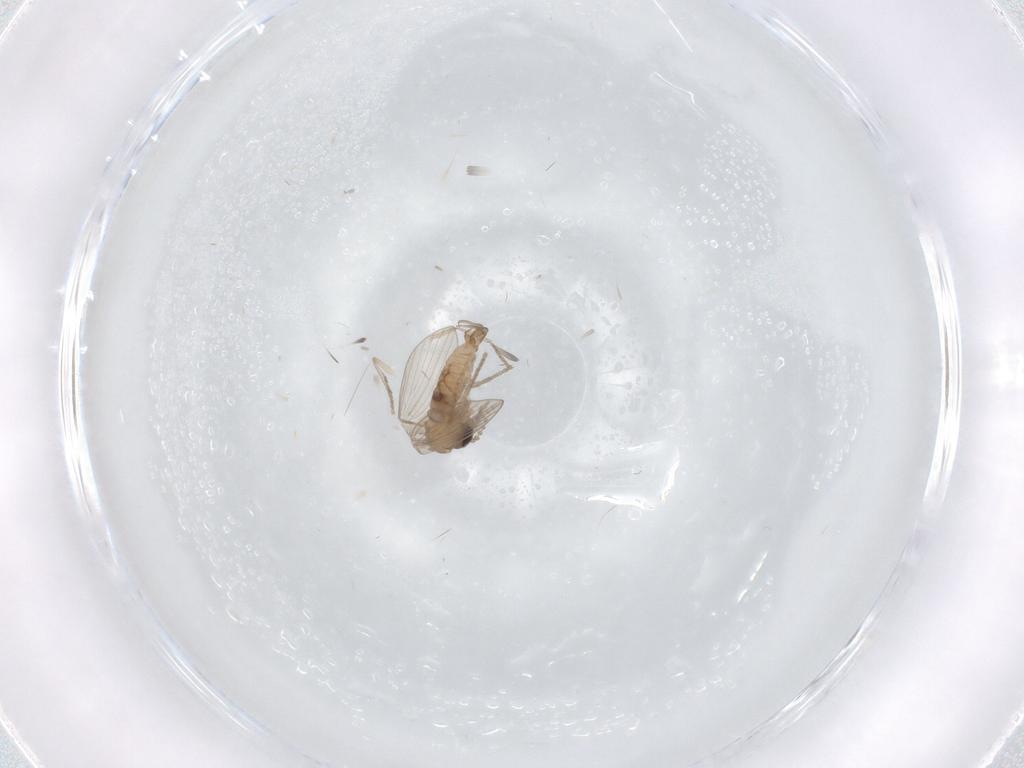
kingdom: Animalia
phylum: Arthropoda
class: Insecta
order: Diptera
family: Psychodidae
